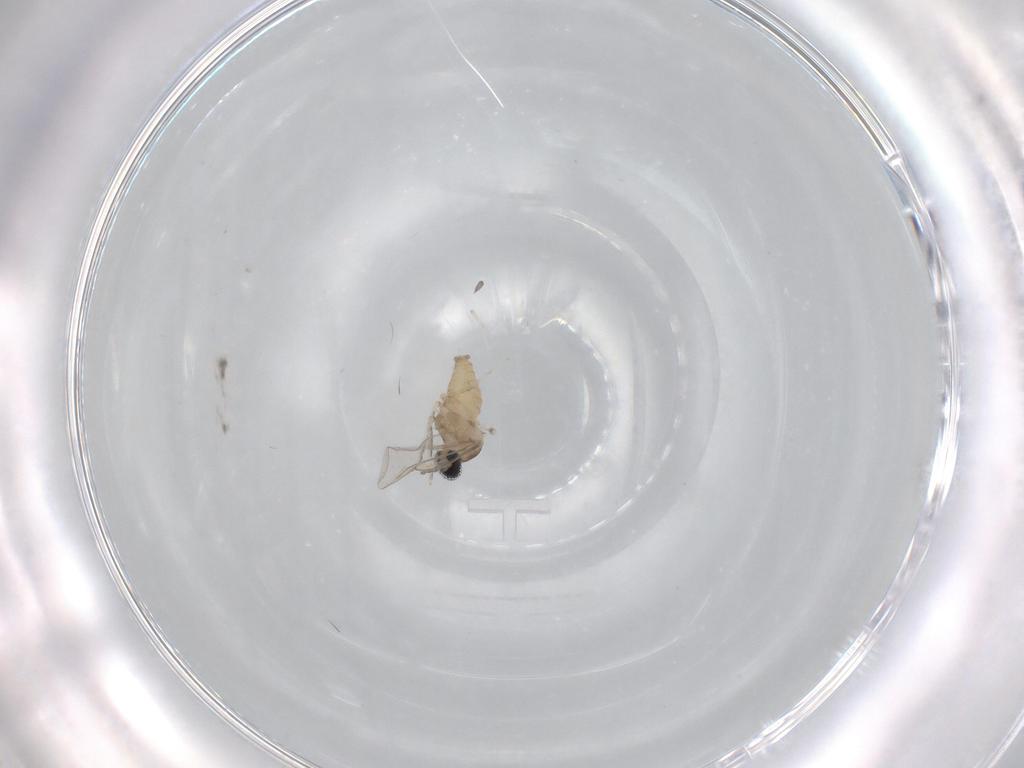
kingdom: Animalia
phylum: Arthropoda
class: Insecta
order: Diptera
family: Cecidomyiidae
